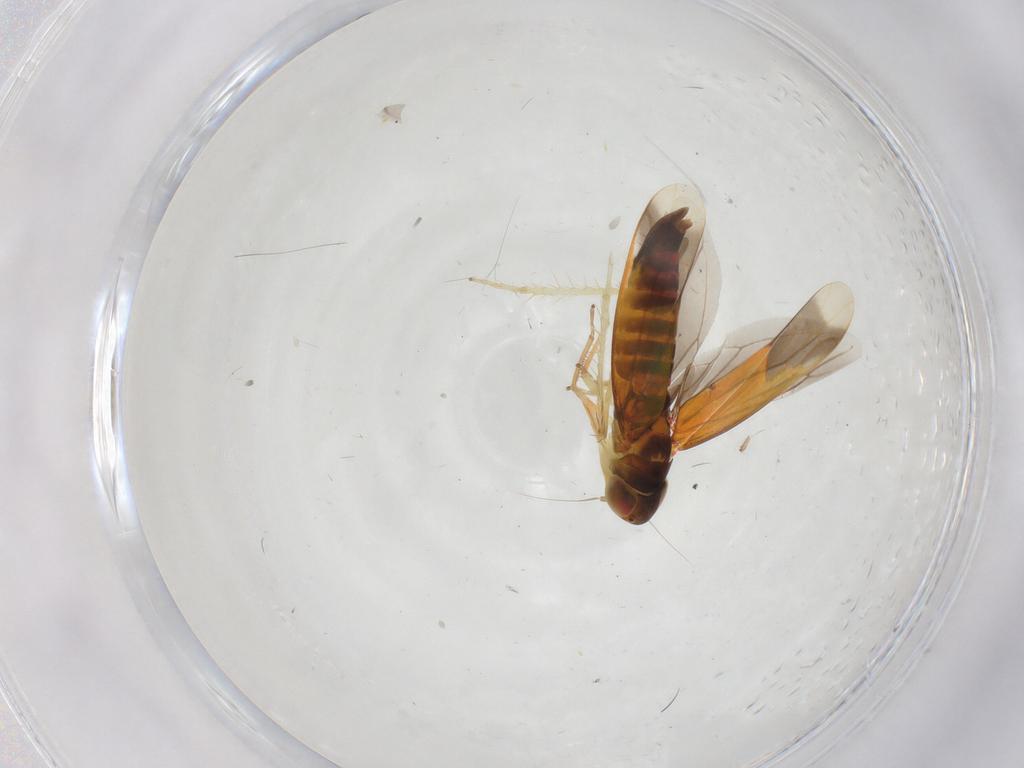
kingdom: Animalia
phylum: Arthropoda
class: Insecta
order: Hemiptera
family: Cicadellidae
